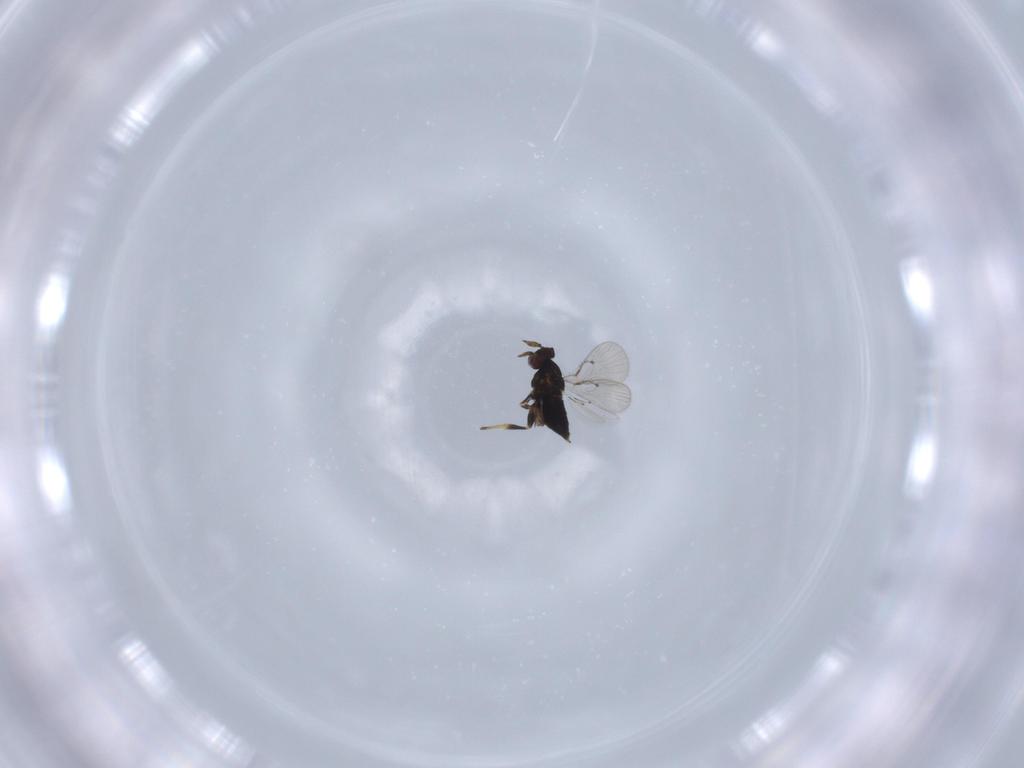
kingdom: Animalia
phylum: Arthropoda
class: Insecta
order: Hymenoptera
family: Trichogrammatidae
